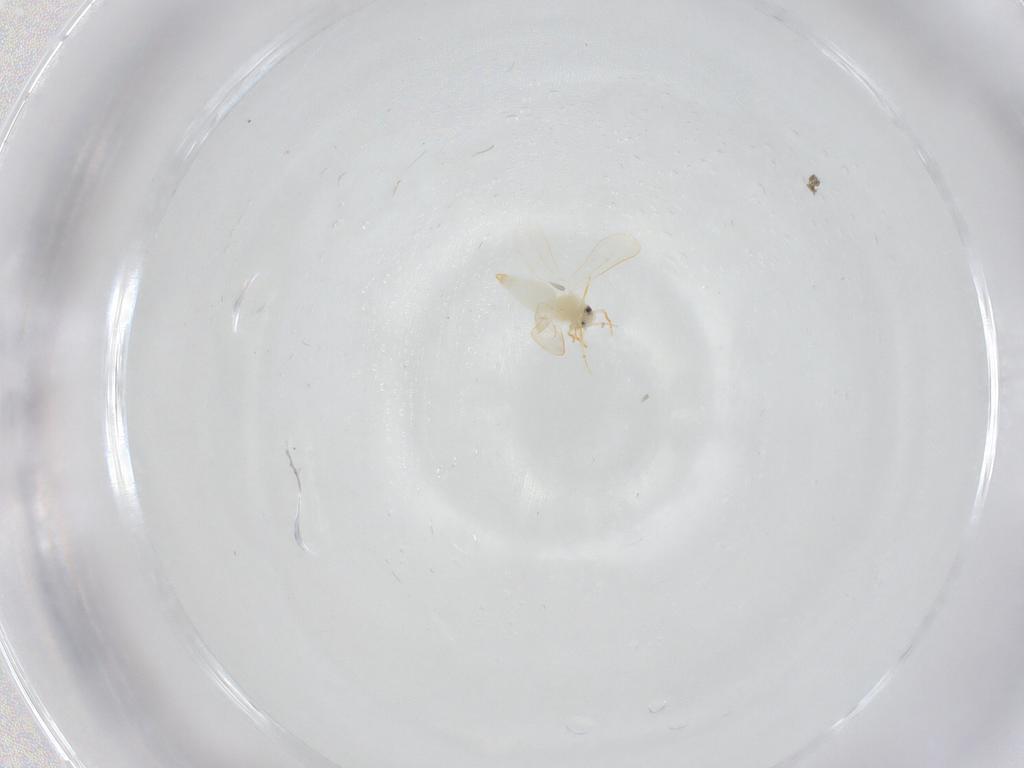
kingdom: Animalia
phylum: Arthropoda
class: Insecta
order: Hemiptera
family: Aleyrodidae
